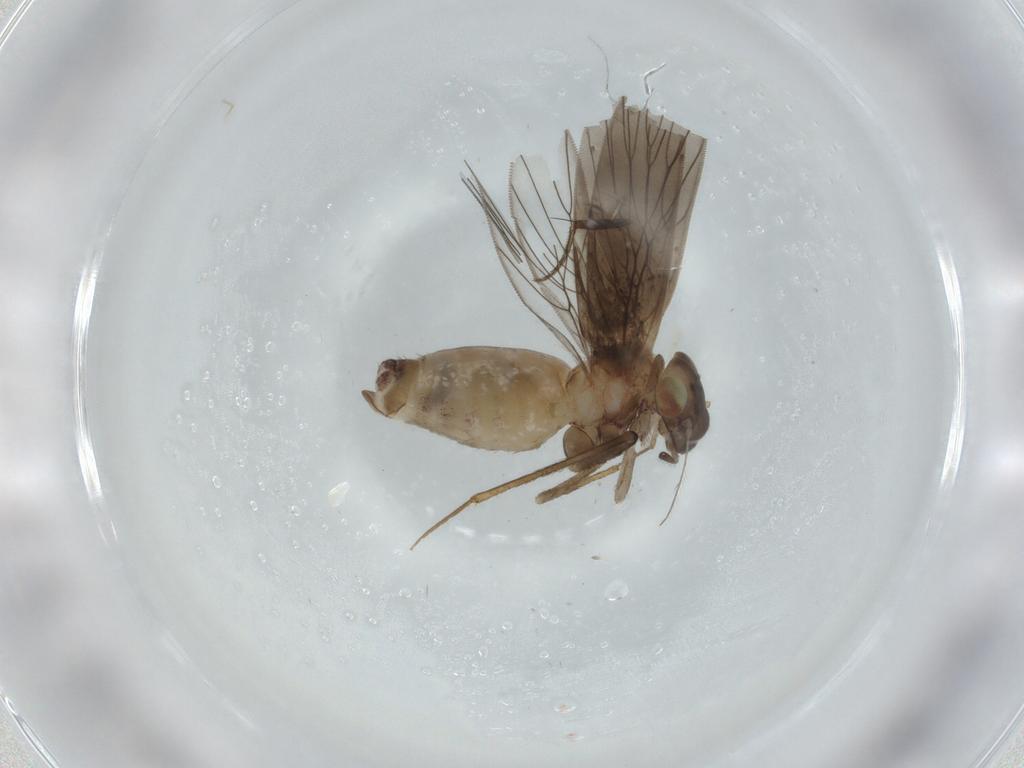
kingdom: Animalia
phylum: Arthropoda
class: Insecta
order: Psocodea
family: Lepidopsocidae
